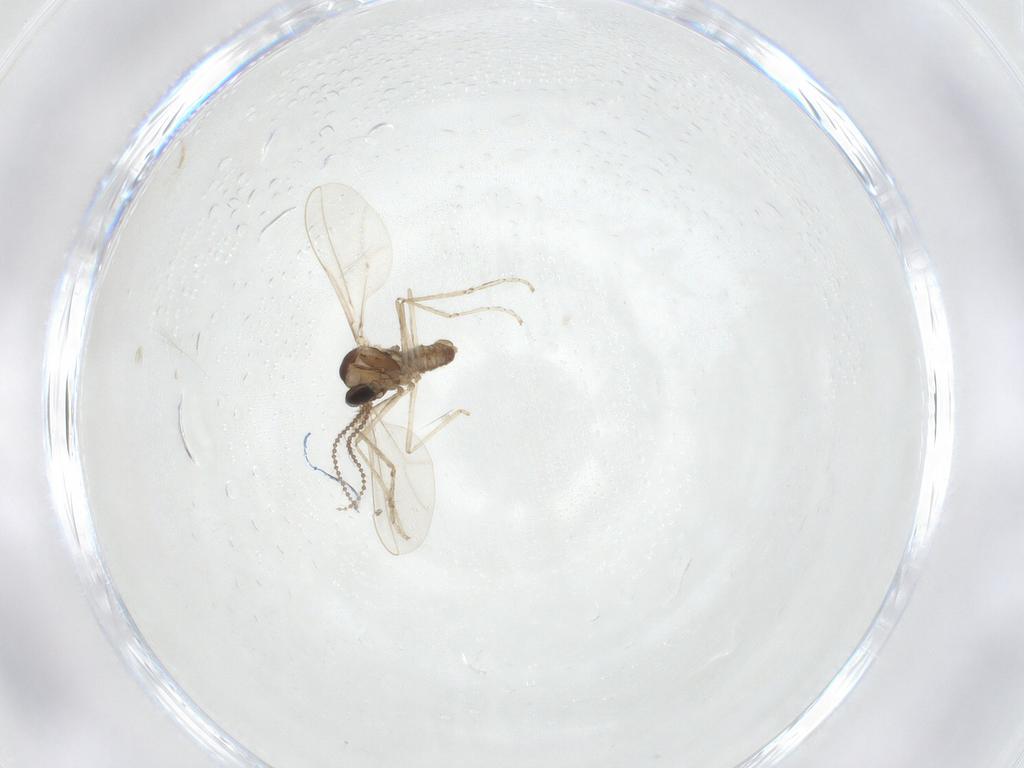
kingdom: Animalia
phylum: Arthropoda
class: Insecta
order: Diptera
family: Cecidomyiidae
